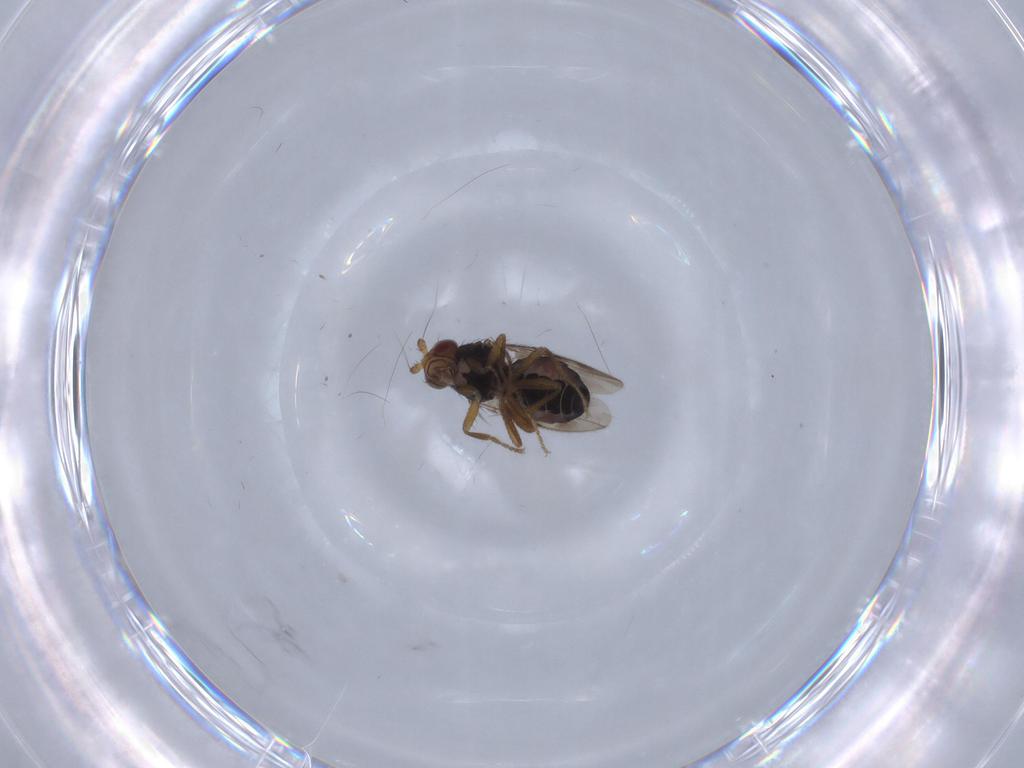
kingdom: Animalia
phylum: Arthropoda
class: Insecta
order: Diptera
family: Sphaeroceridae
